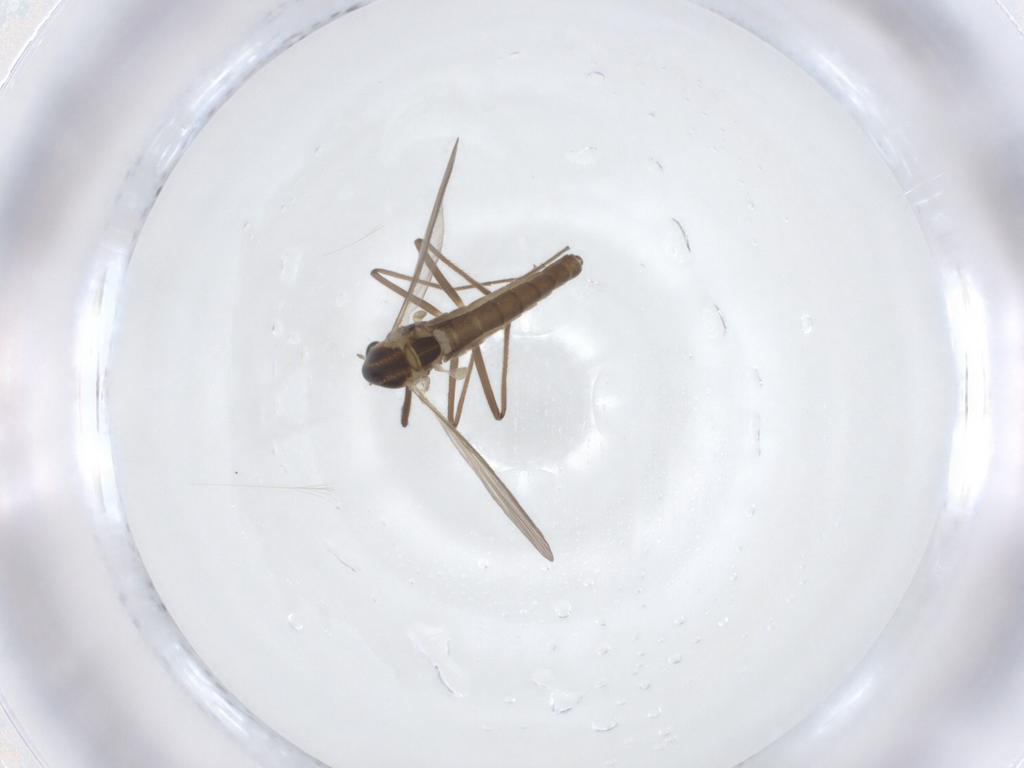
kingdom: Animalia
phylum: Arthropoda
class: Insecta
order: Diptera
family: Chironomidae
